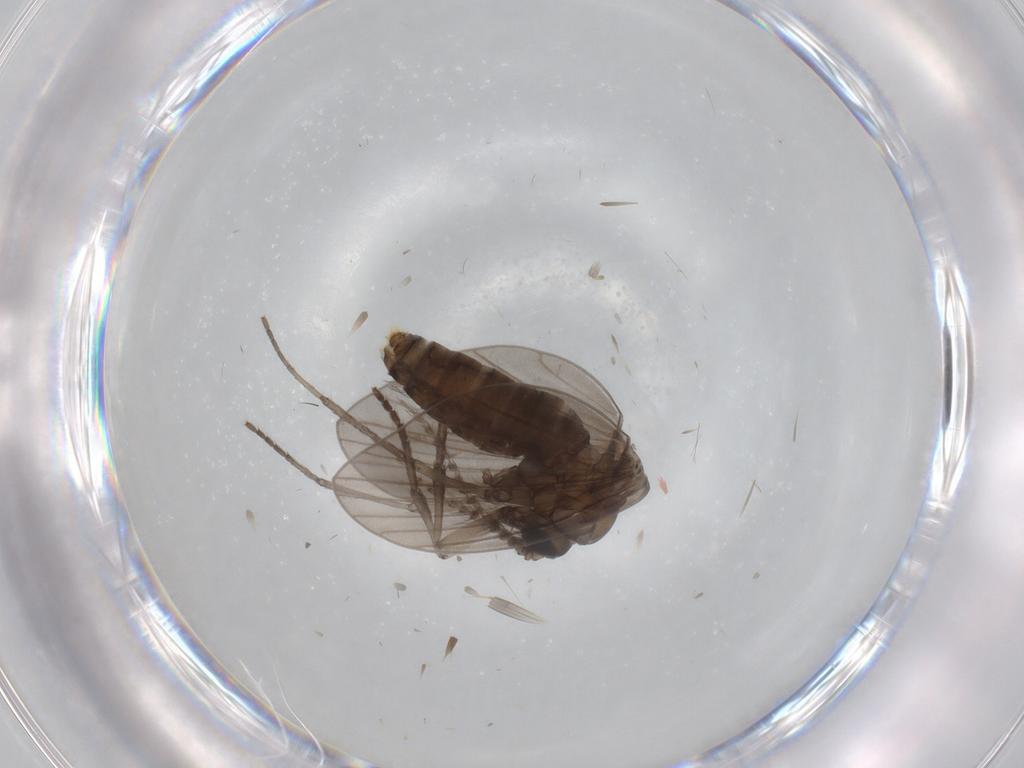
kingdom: Animalia
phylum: Arthropoda
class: Insecta
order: Diptera
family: Psychodidae
